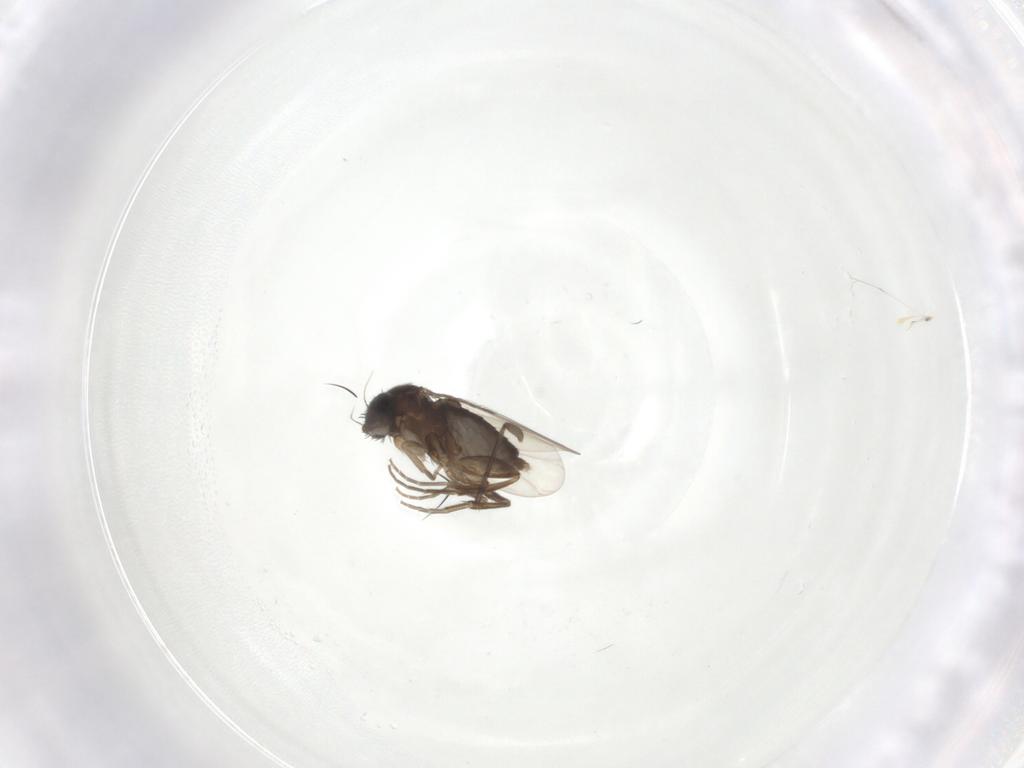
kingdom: Animalia
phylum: Arthropoda
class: Insecta
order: Diptera
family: Phoridae
